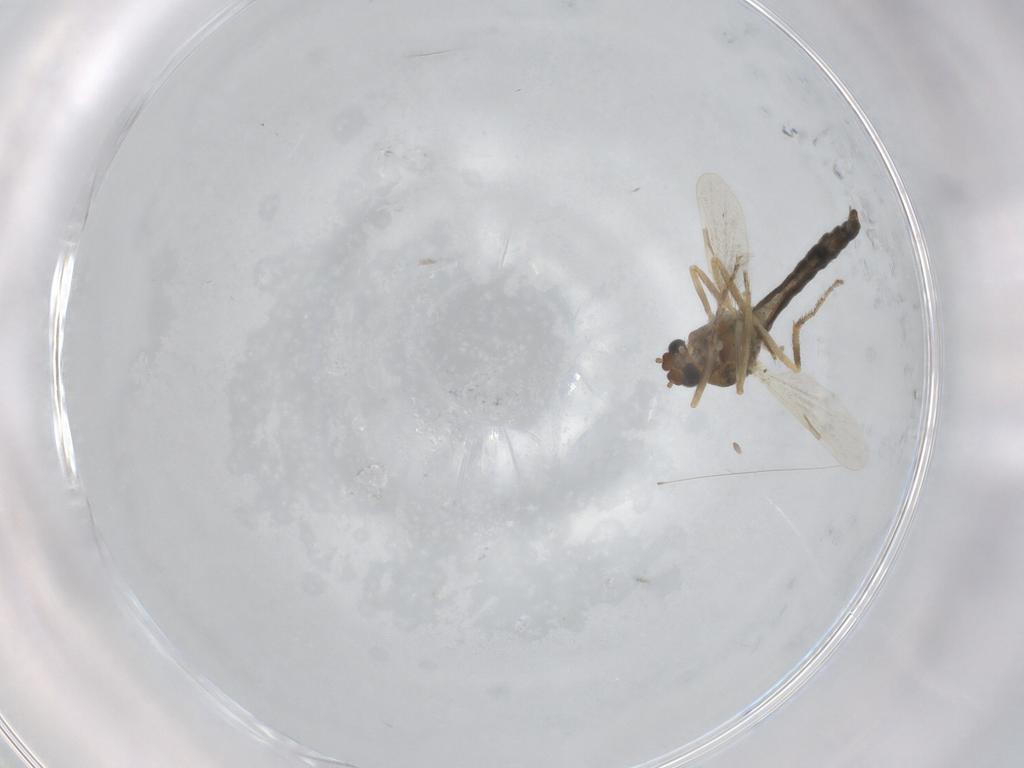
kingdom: Animalia
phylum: Arthropoda
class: Insecta
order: Diptera
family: Ceratopogonidae
